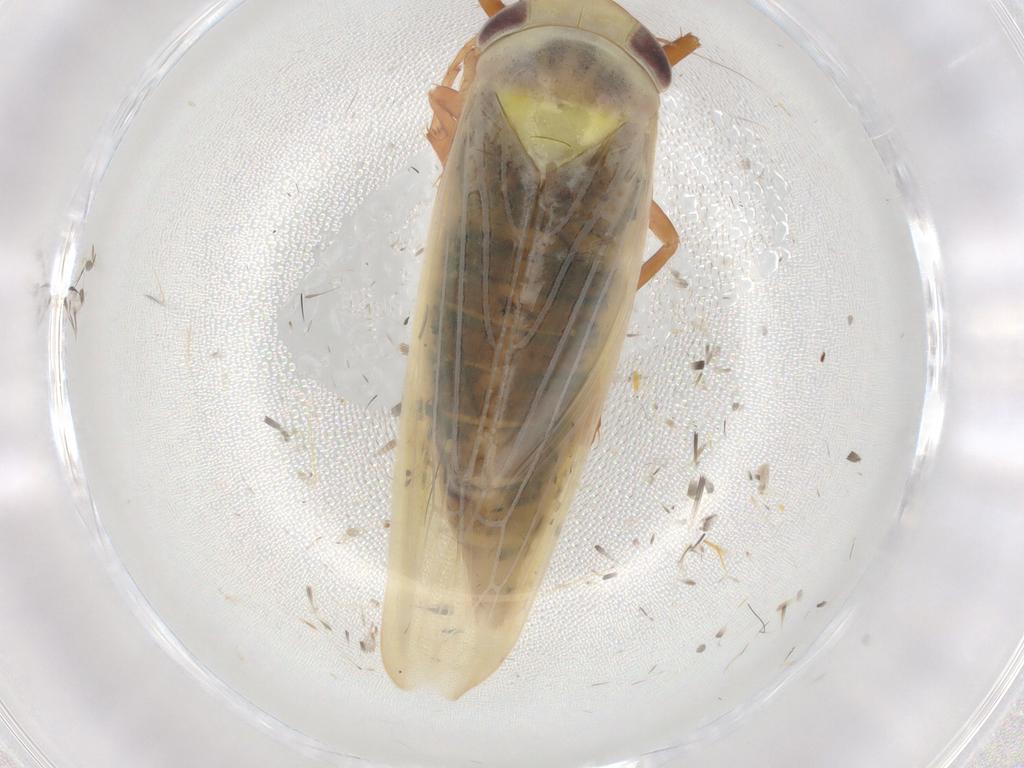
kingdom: Animalia
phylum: Arthropoda
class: Insecta
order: Hemiptera
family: Cicadellidae
